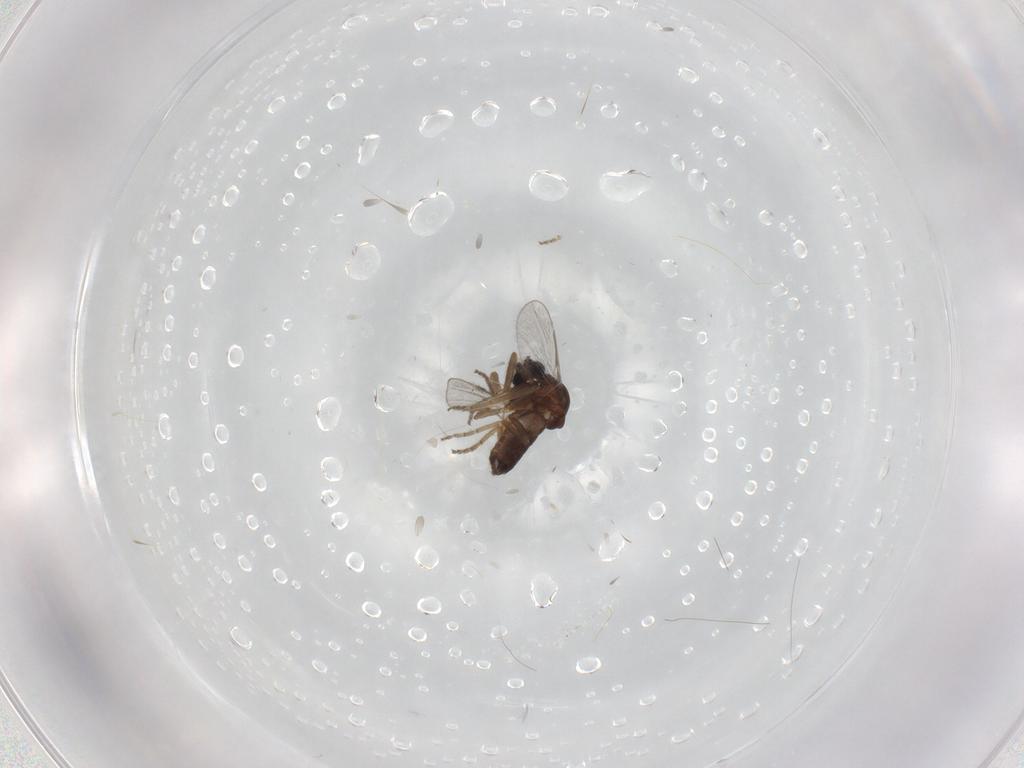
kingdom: Animalia
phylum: Arthropoda
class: Insecta
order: Diptera
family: Ceratopogonidae
